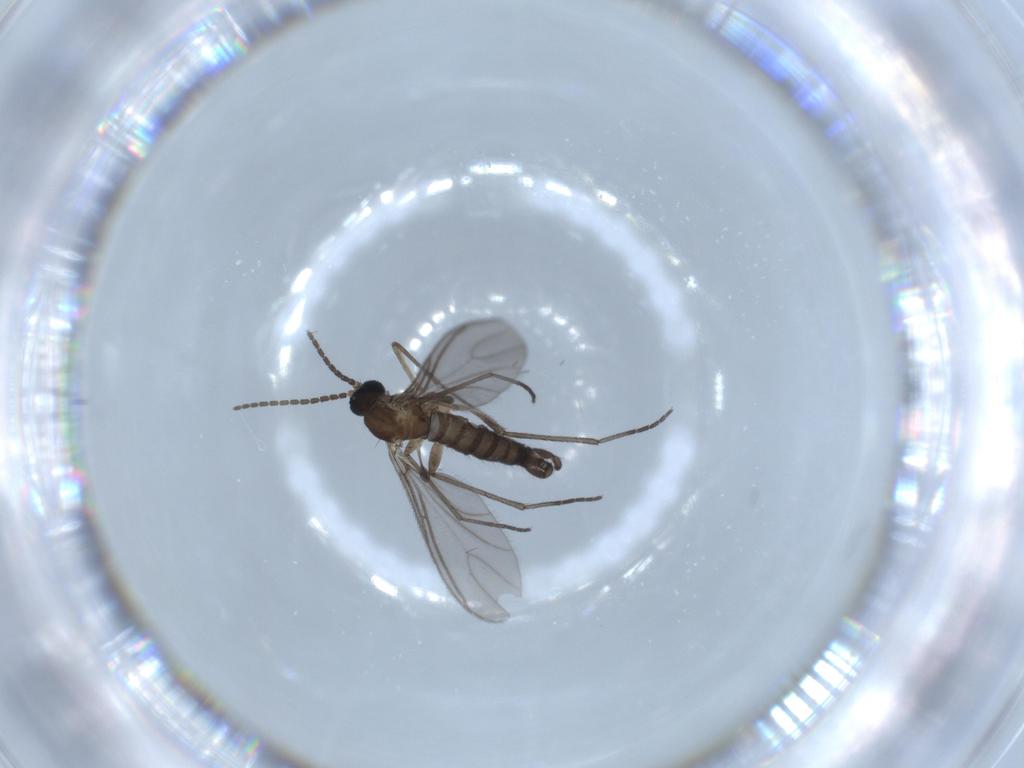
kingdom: Animalia
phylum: Arthropoda
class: Insecta
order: Diptera
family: Sciaridae
